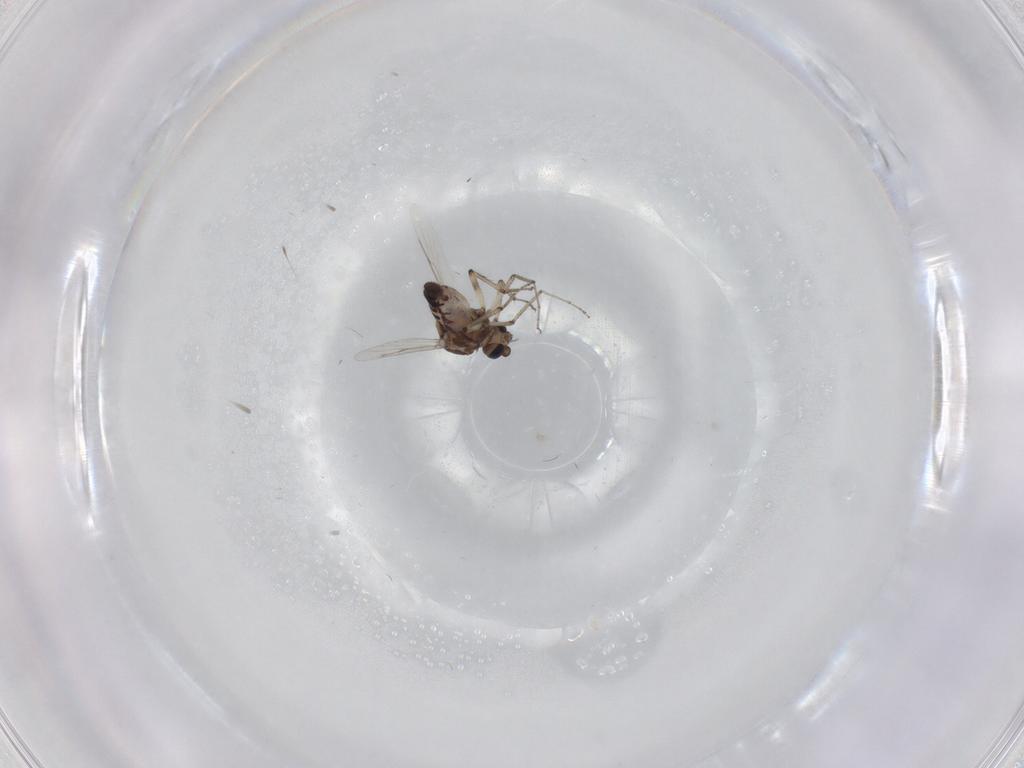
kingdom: Animalia
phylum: Arthropoda
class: Insecta
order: Diptera
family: Ceratopogonidae
